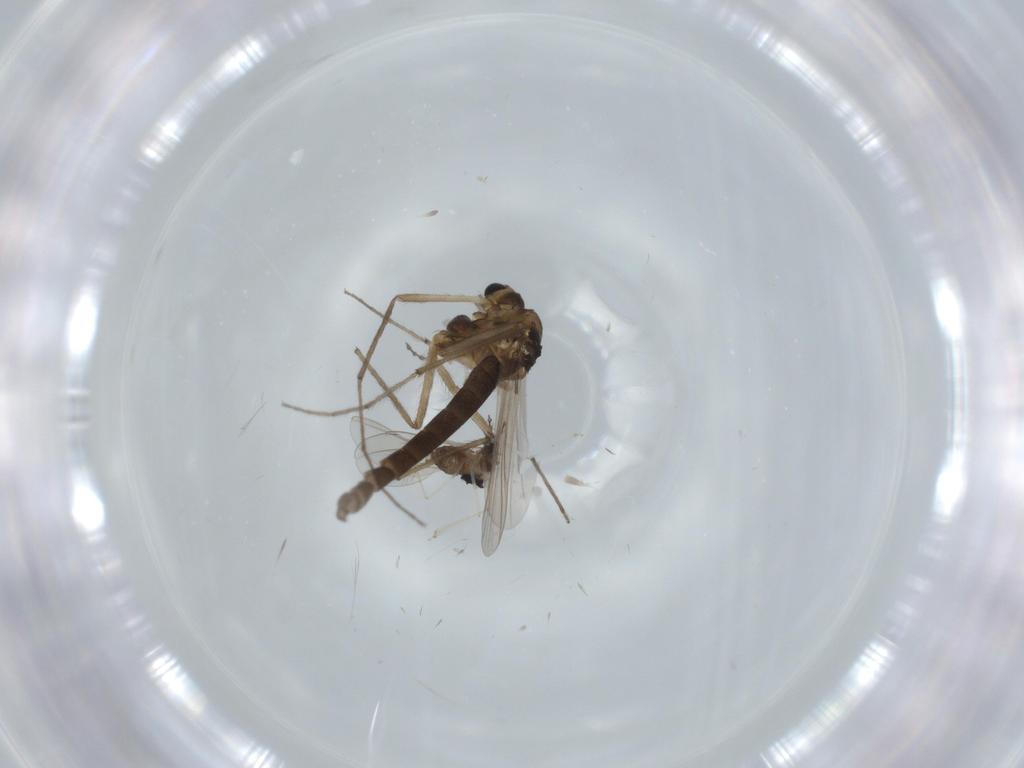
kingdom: Animalia
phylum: Arthropoda
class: Insecta
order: Diptera
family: Chironomidae
